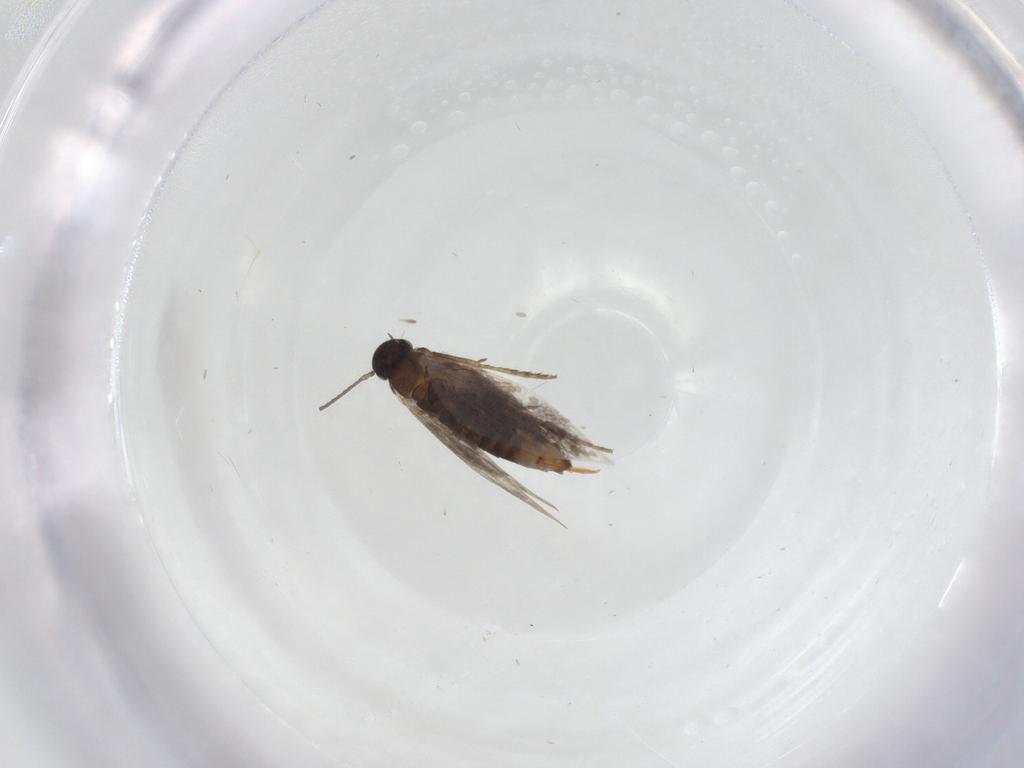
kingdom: Animalia
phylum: Arthropoda
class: Insecta
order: Lepidoptera
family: Heliozelidae
